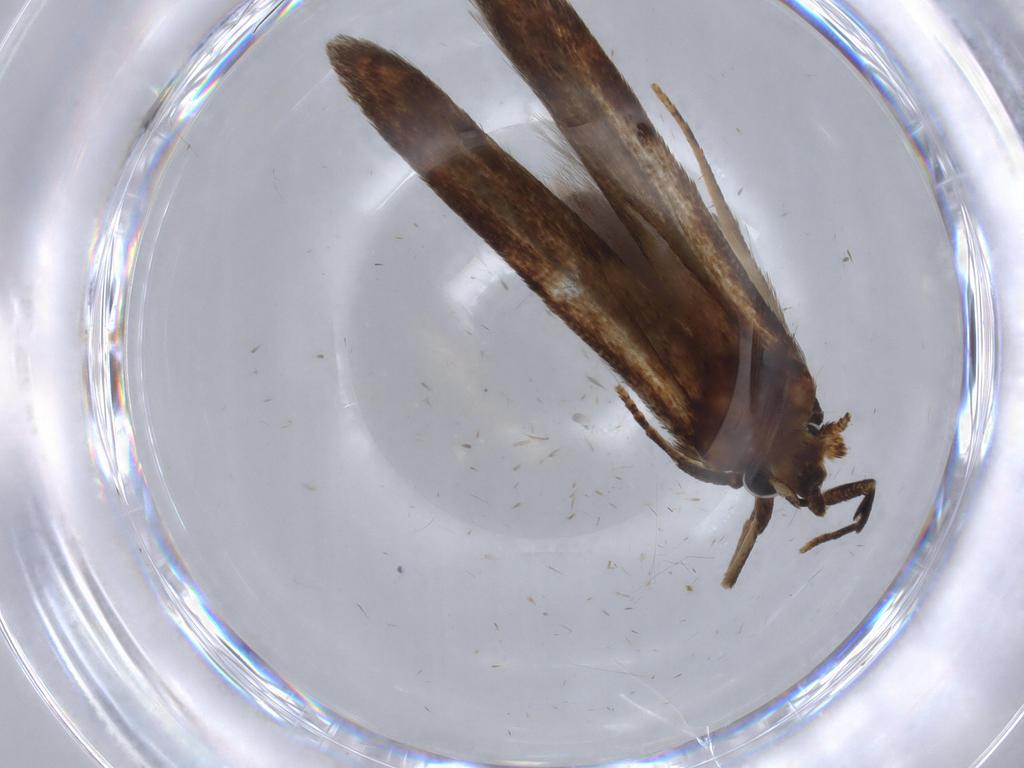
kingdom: Animalia
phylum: Arthropoda
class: Insecta
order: Lepidoptera
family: Blastobasidae
